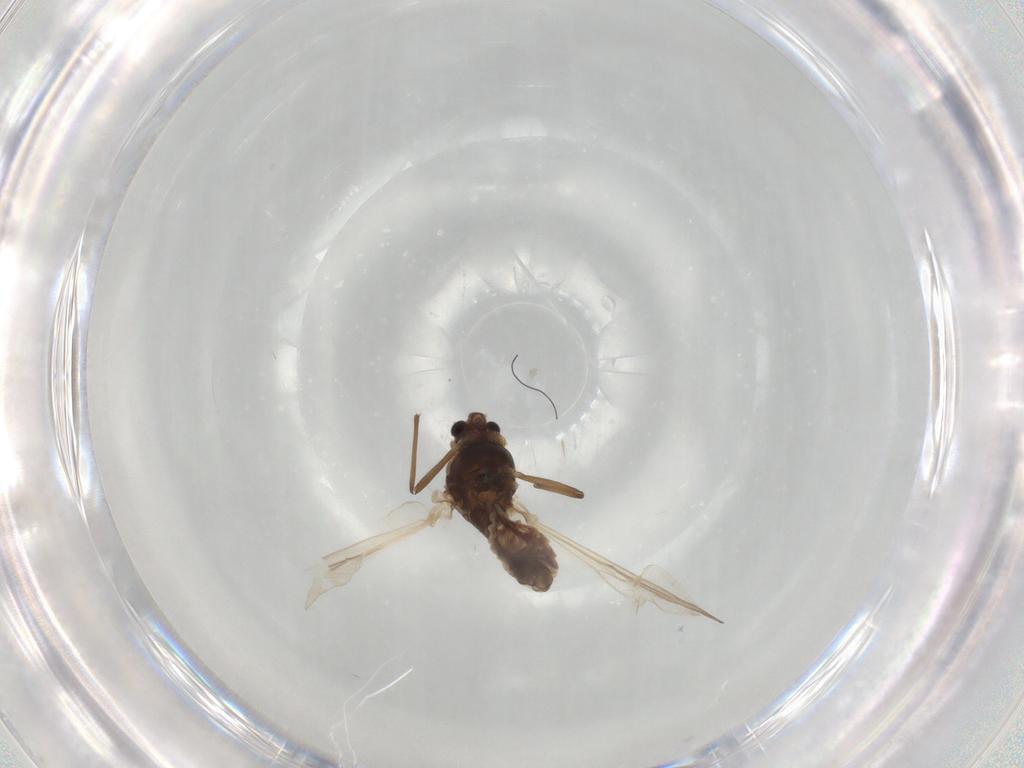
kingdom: Animalia
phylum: Arthropoda
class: Insecta
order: Diptera
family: Chironomidae
